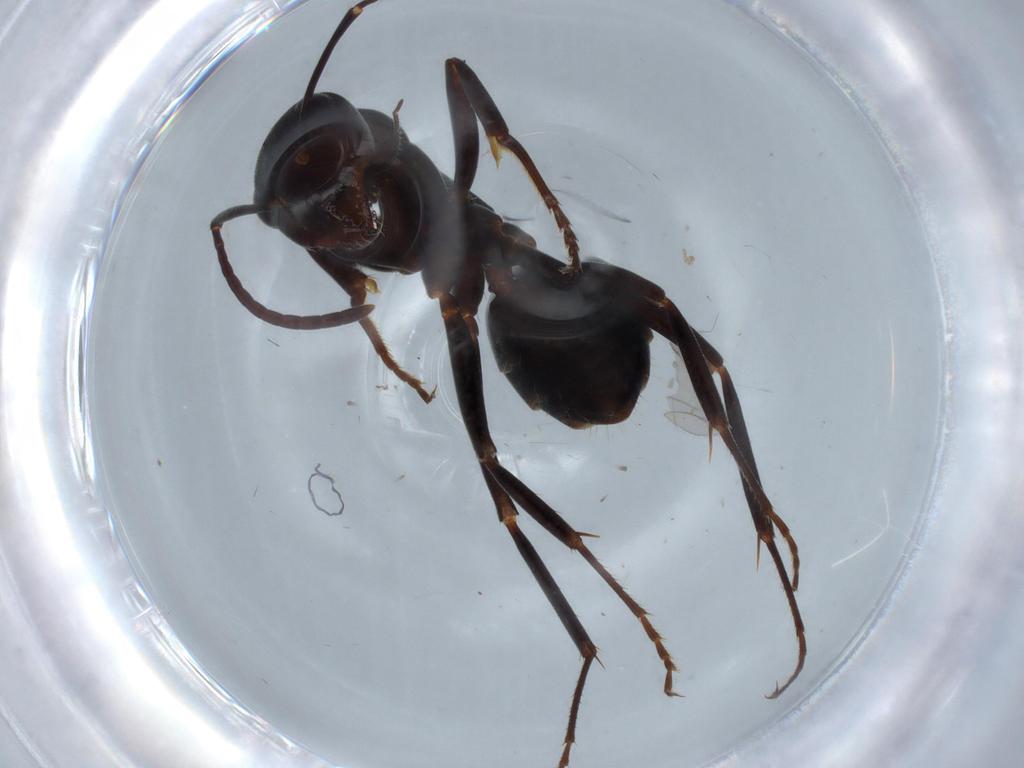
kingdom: Animalia
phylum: Arthropoda
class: Insecta
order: Hymenoptera
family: Formicidae
